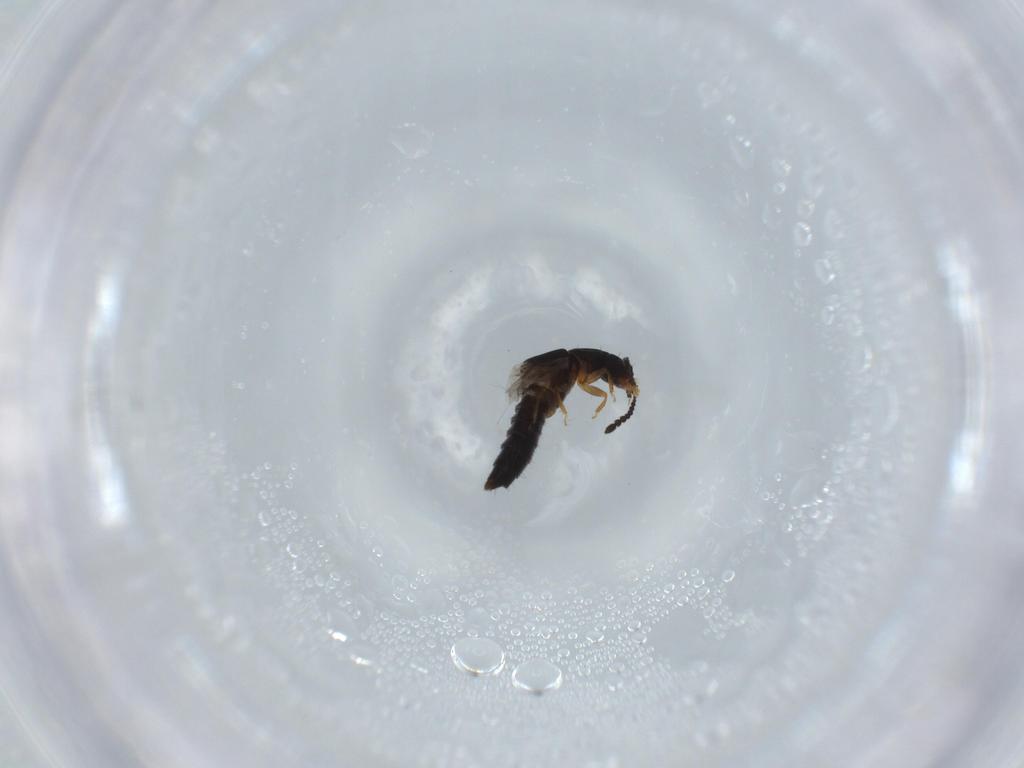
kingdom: Animalia
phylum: Arthropoda
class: Insecta
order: Coleoptera
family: Staphylinidae
